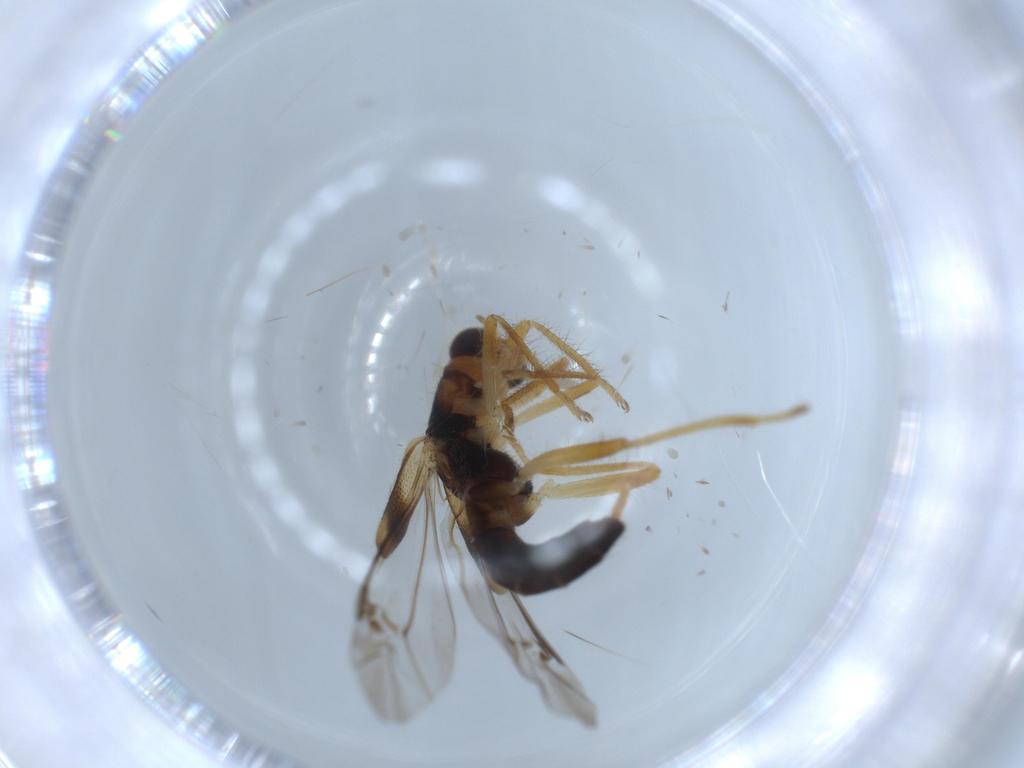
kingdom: Animalia
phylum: Arthropoda
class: Insecta
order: Coleoptera
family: Cleridae
